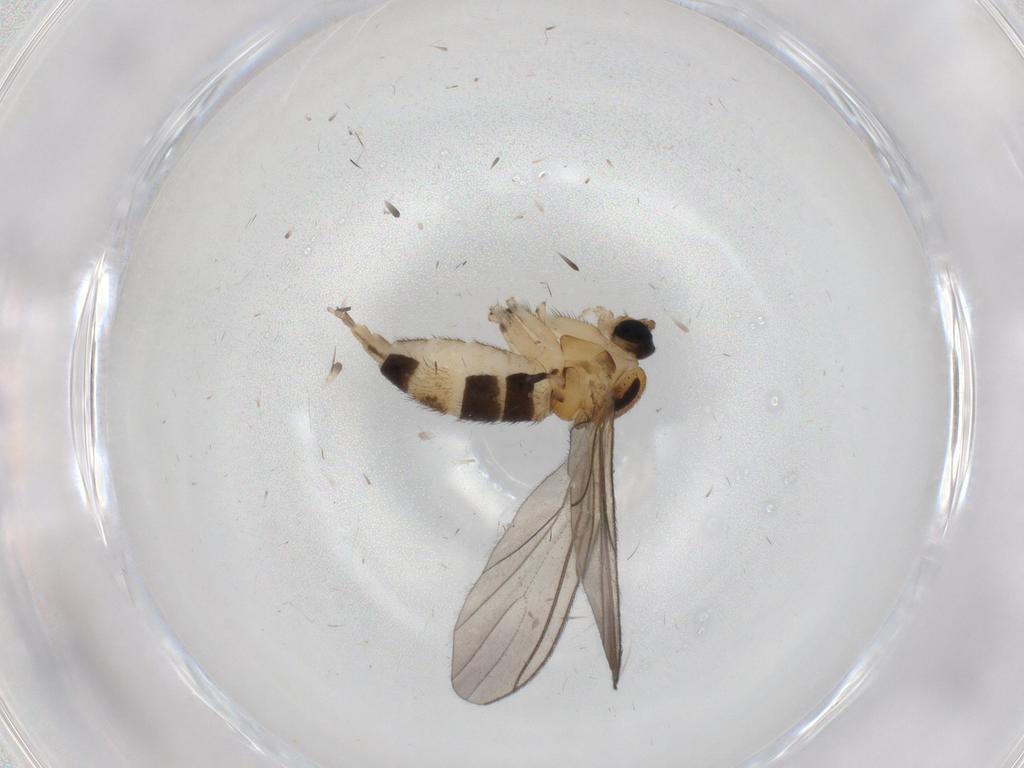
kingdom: Animalia
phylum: Arthropoda
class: Insecta
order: Diptera
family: Sciaridae
